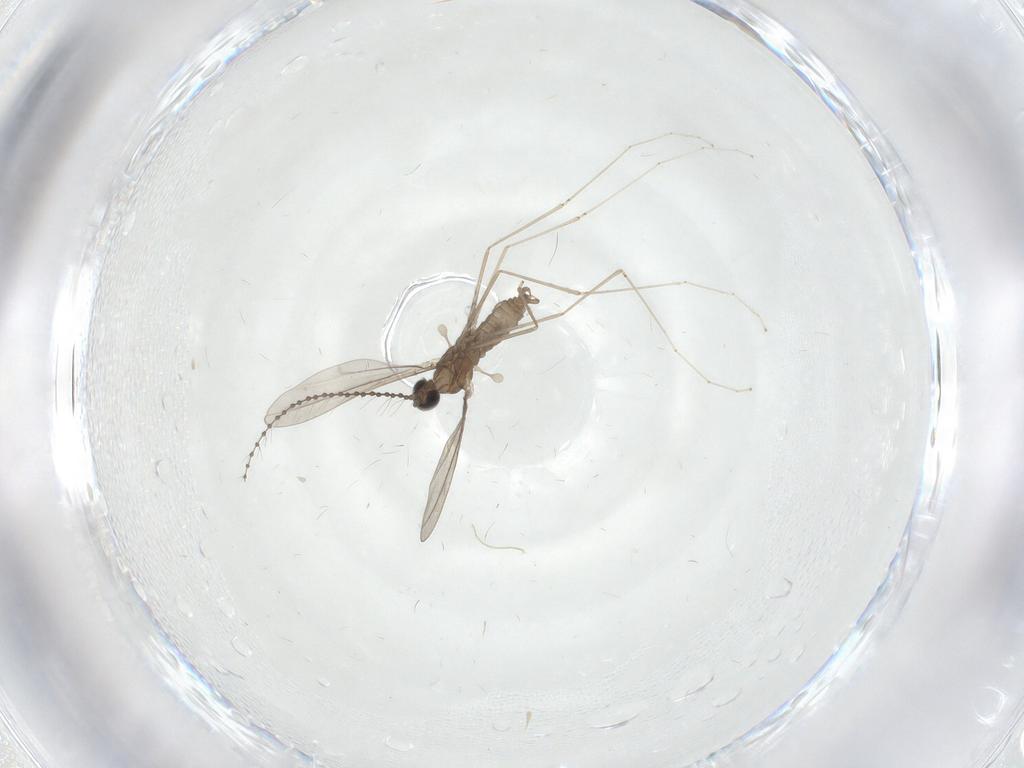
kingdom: Animalia
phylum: Arthropoda
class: Insecta
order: Diptera
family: Cecidomyiidae
